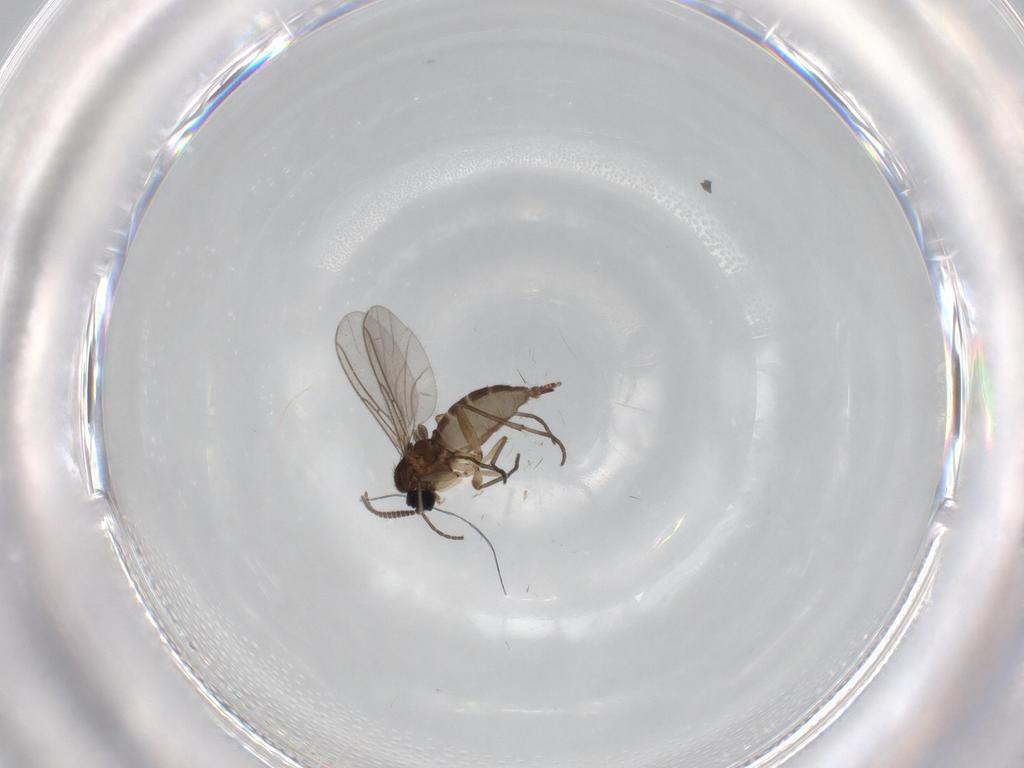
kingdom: Animalia
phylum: Arthropoda
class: Insecta
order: Diptera
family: Sciaridae
